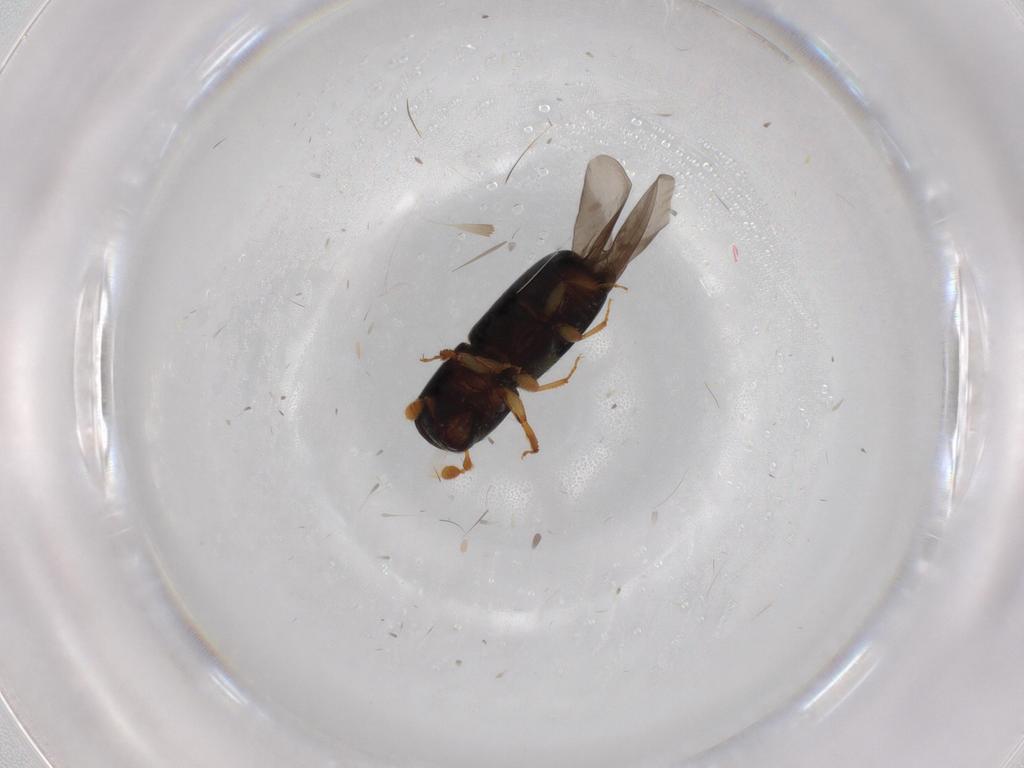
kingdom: Animalia
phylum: Arthropoda
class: Insecta
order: Coleoptera
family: Curculionidae
